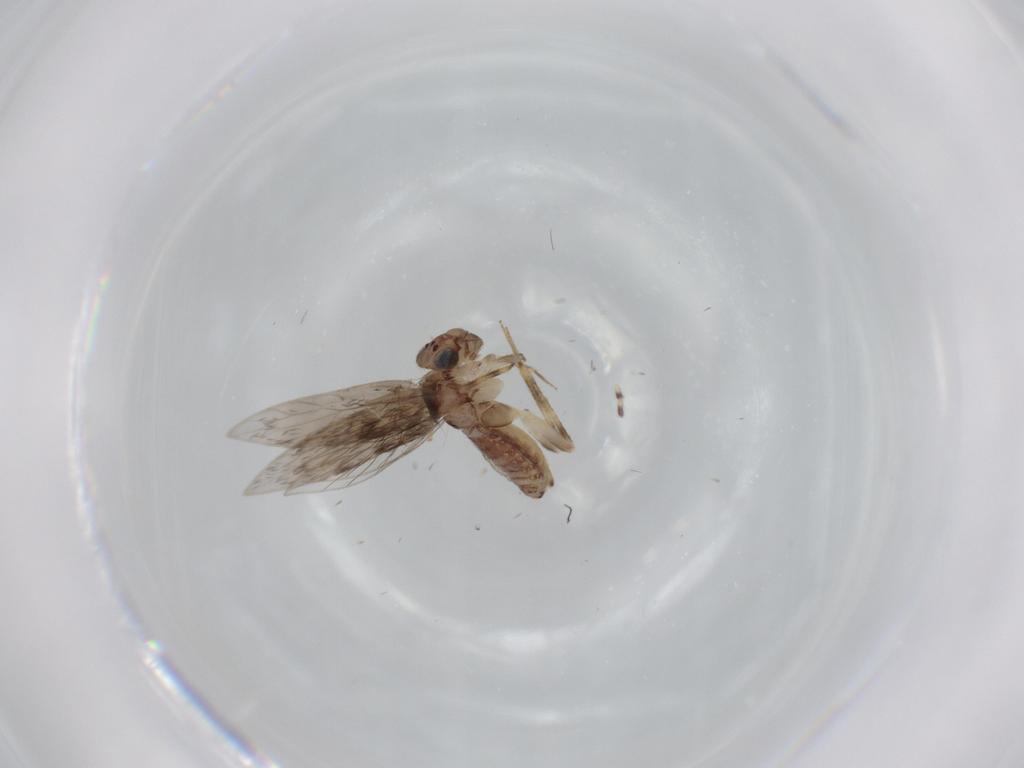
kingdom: Animalia
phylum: Arthropoda
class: Insecta
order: Psocodea
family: Lepidopsocidae
